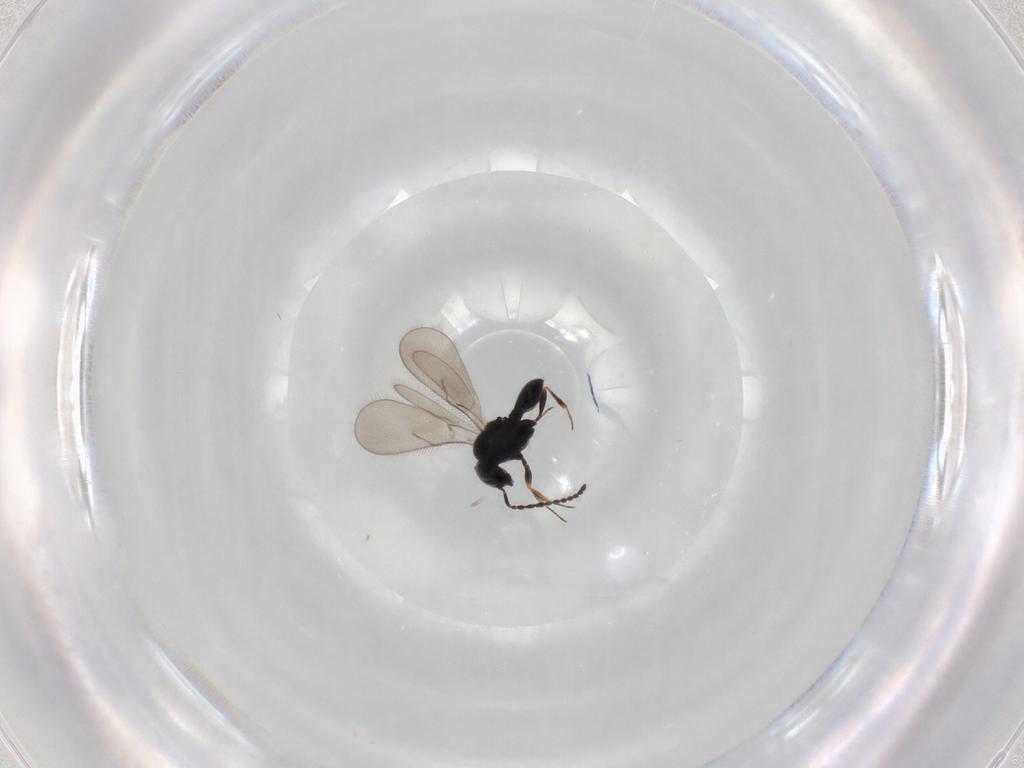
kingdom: Animalia
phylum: Arthropoda
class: Insecta
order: Hymenoptera
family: Scelionidae
